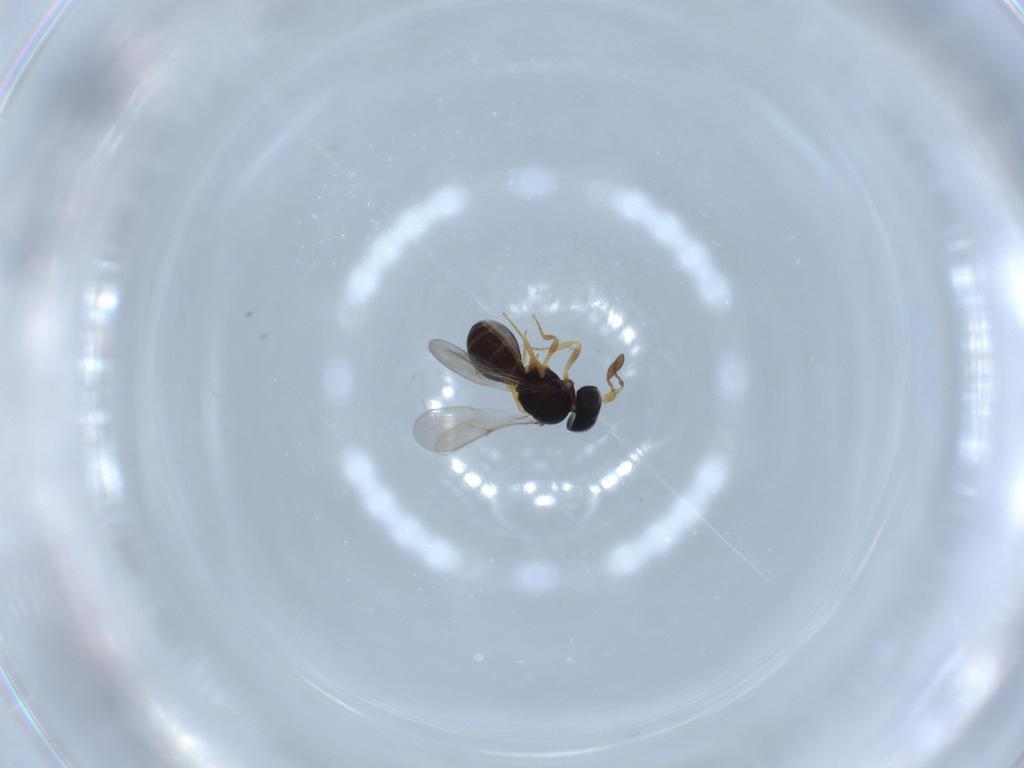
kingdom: Animalia
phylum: Arthropoda
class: Insecta
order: Hymenoptera
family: Scelionidae
